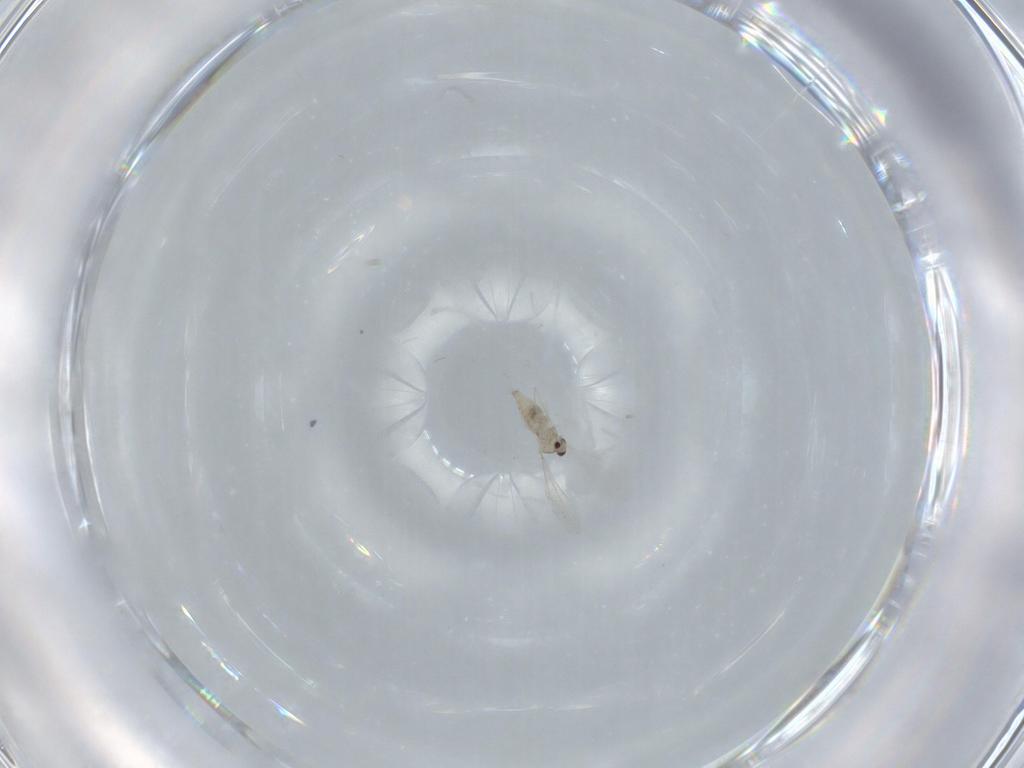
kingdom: Animalia
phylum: Arthropoda
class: Insecta
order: Diptera
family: Cecidomyiidae
